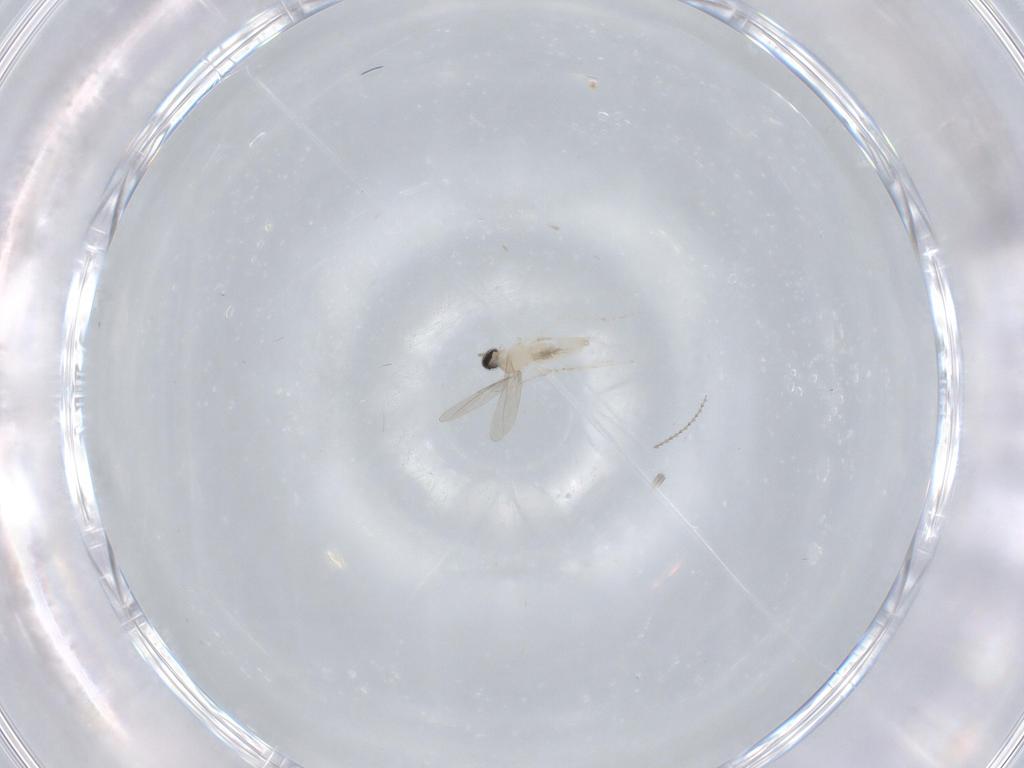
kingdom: Animalia
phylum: Arthropoda
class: Insecta
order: Diptera
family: Cecidomyiidae
